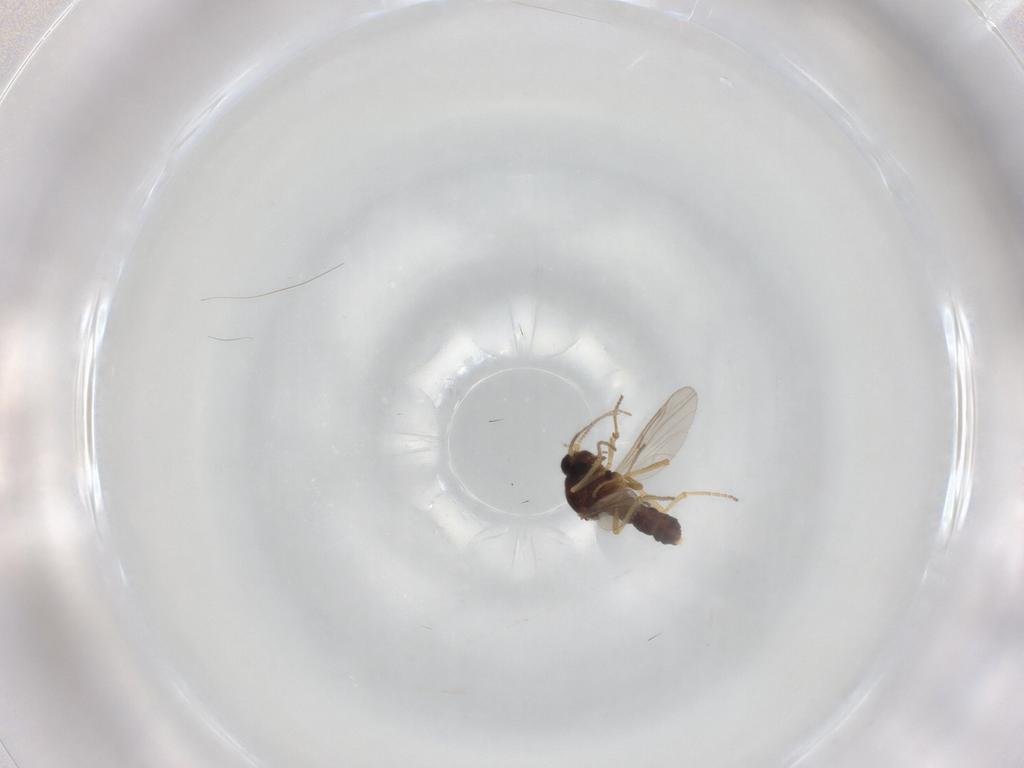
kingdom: Animalia
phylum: Arthropoda
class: Insecta
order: Diptera
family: Ceratopogonidae
